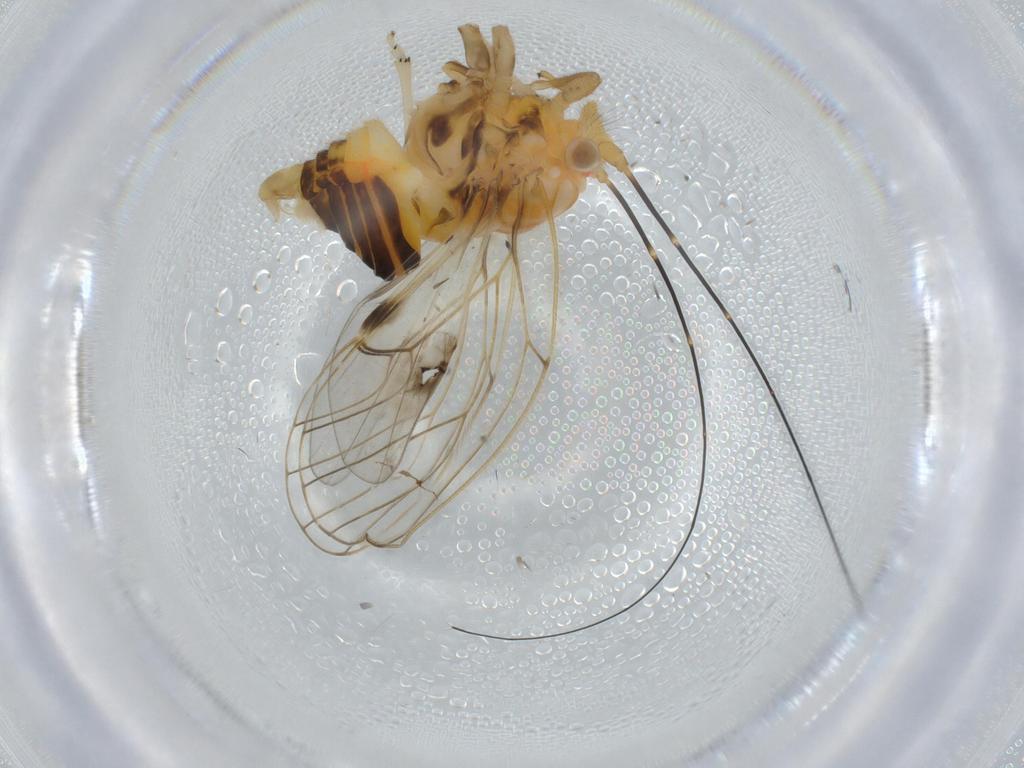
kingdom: Animalia
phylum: Arthropoda
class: Insecta
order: Hemiptera
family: Psyllidae
